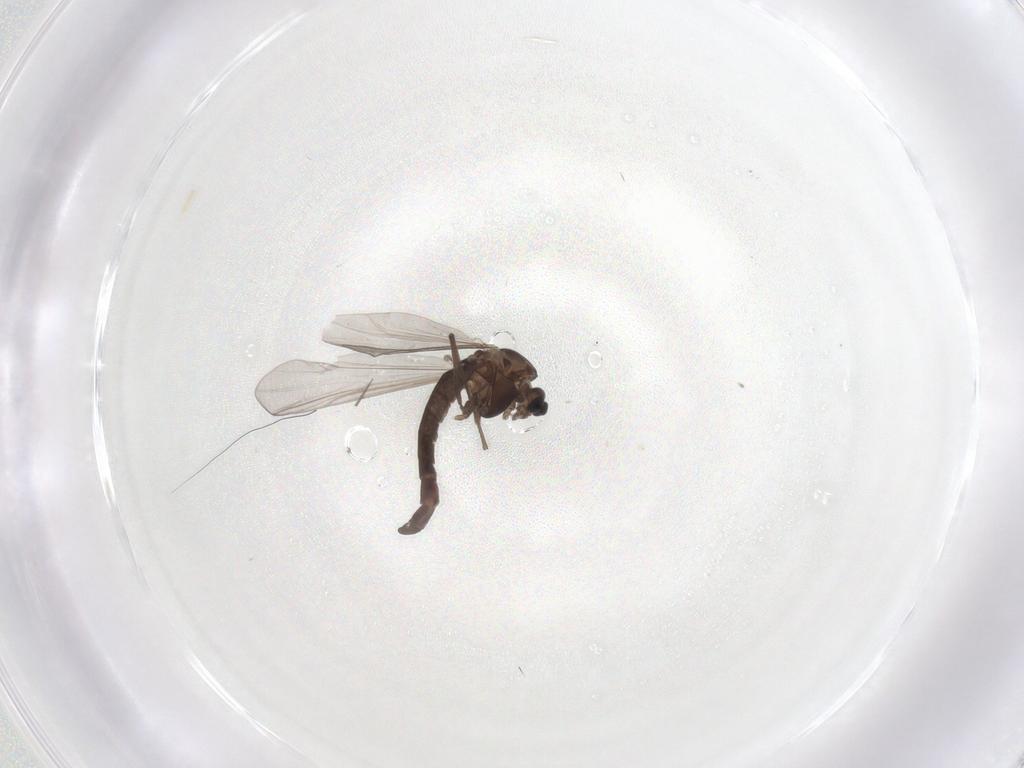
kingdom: Animalia
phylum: Arthropoda
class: Insecta
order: Diptera
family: Chironomidae
